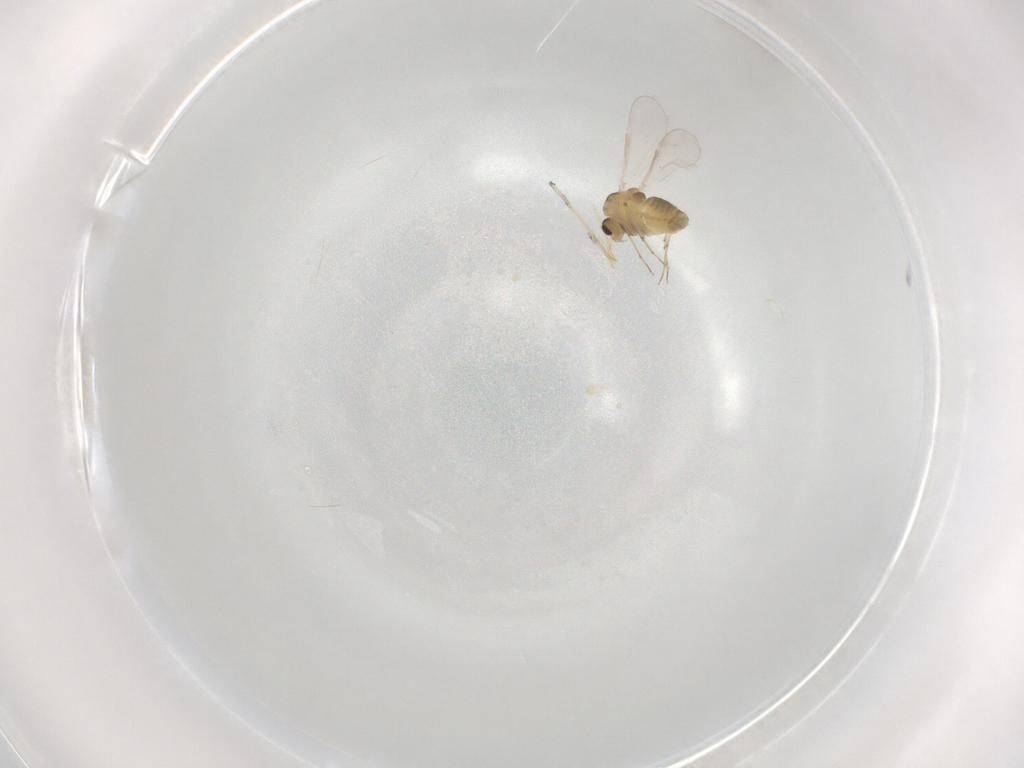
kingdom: Animalia
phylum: Arthropoda
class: Insecta
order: Diptera
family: Chironomidae
